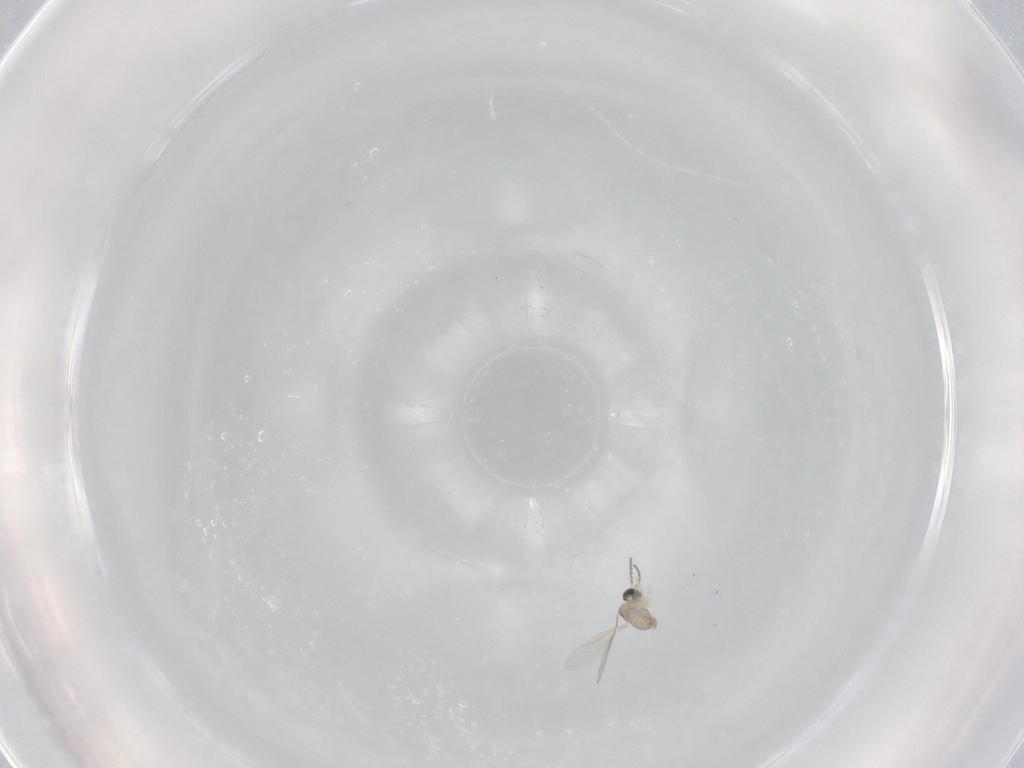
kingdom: Animalia
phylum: Arthropoda
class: Insecta
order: Diptera
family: Cecidomyiidae
